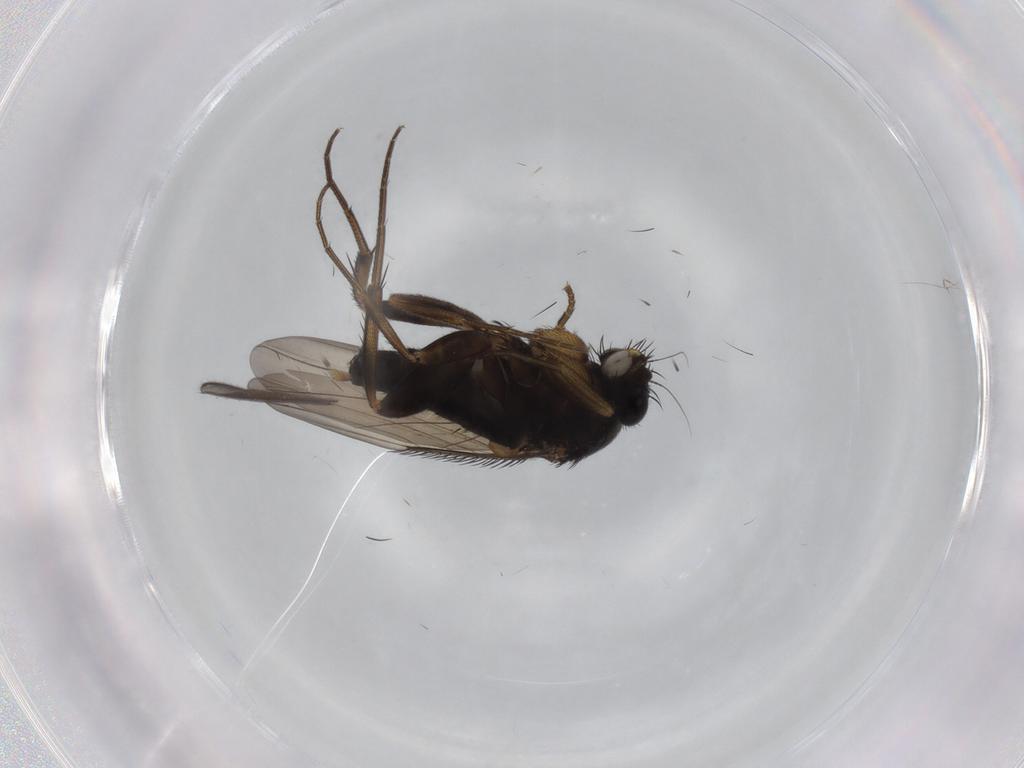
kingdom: Animalia
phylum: Arthropoda
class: Insecta
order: Diptera
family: Phoridae
